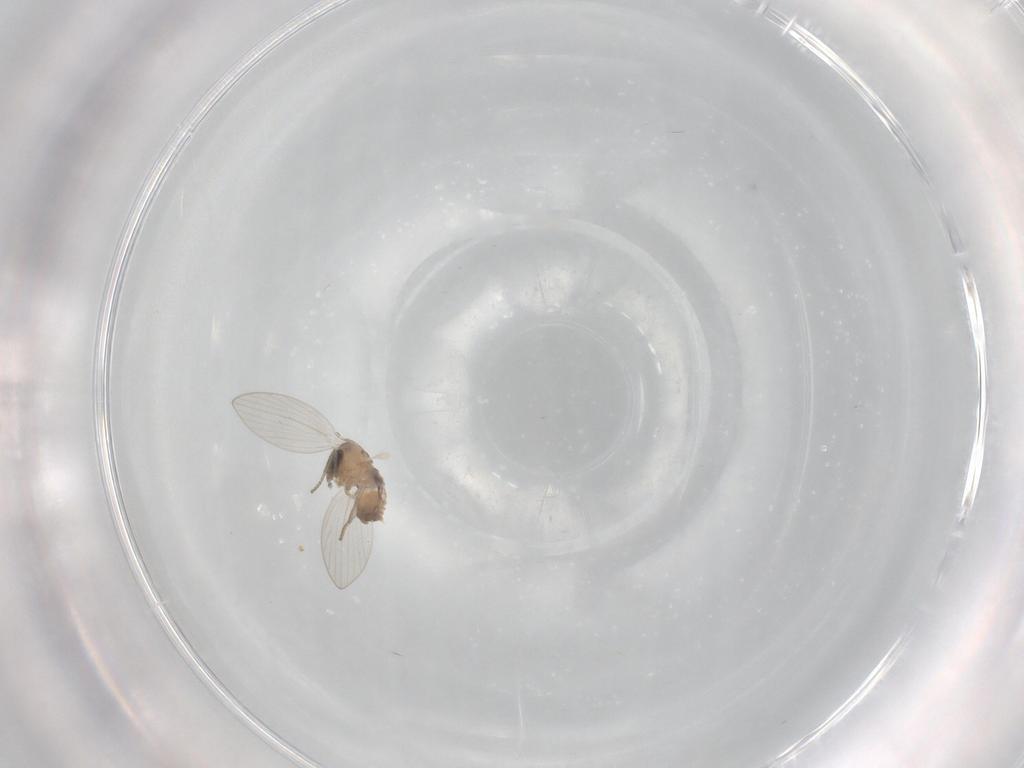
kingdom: Animalia
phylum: Arthropoda
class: Insecta
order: Diptera
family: Psychodidae
